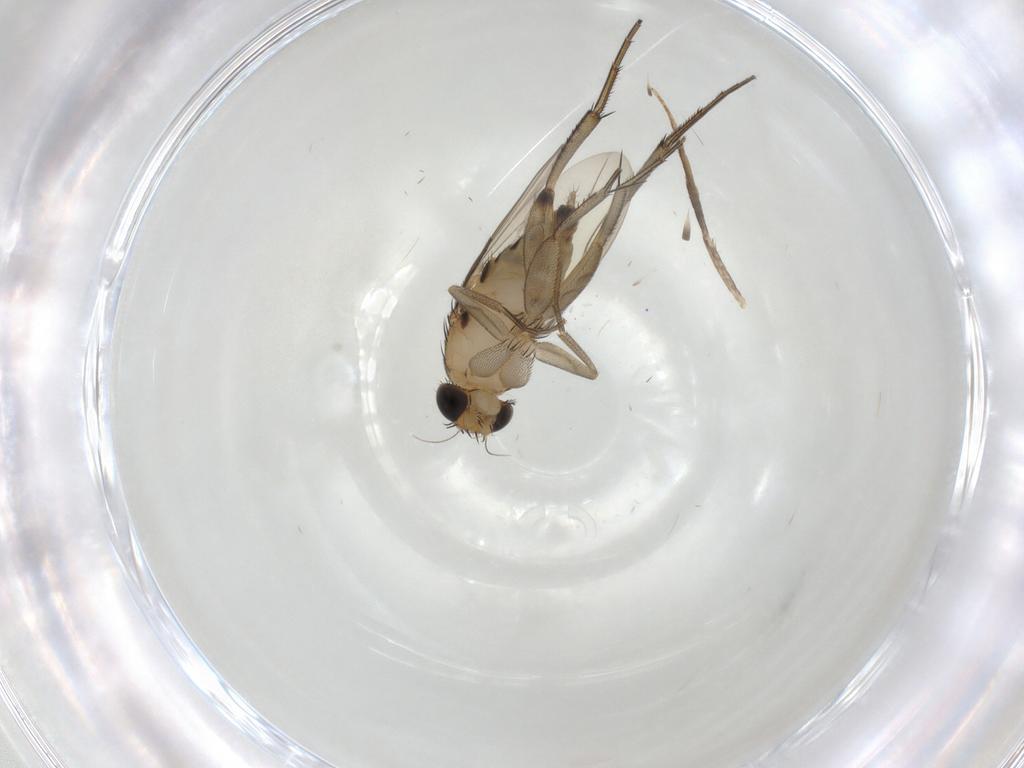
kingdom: Animalia
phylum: Arthropoda
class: Insecta
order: Diptera
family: Phoridae
